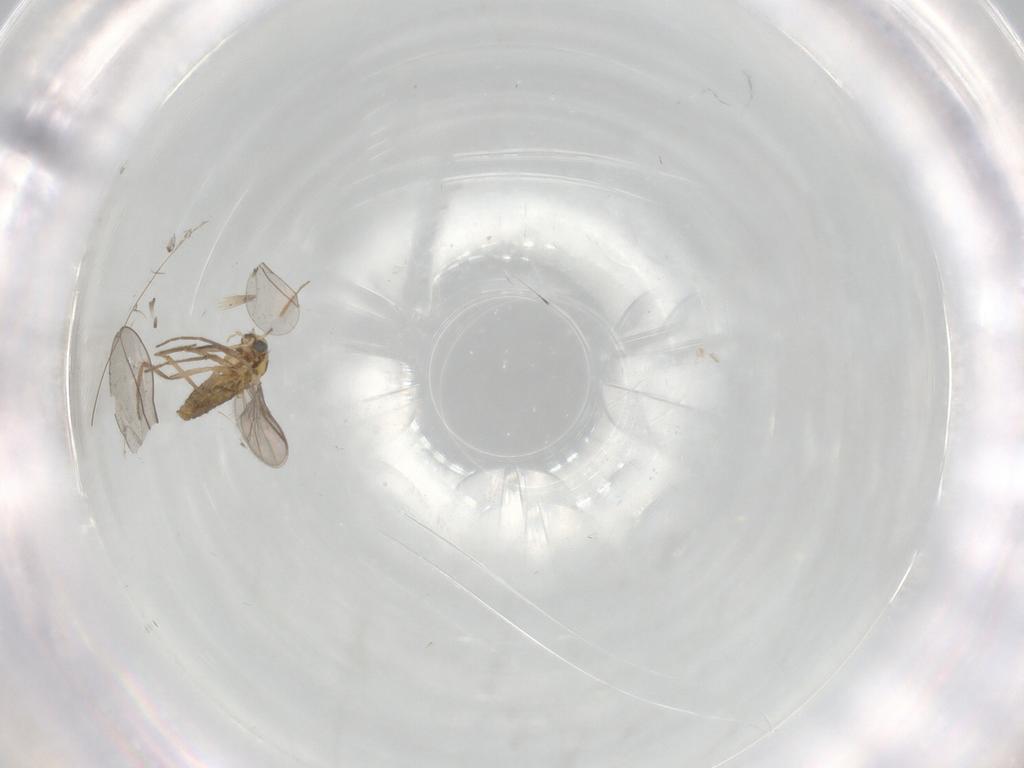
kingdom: Animalia
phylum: Arthropoda
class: Insecta
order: Diptera
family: Chironomidae
